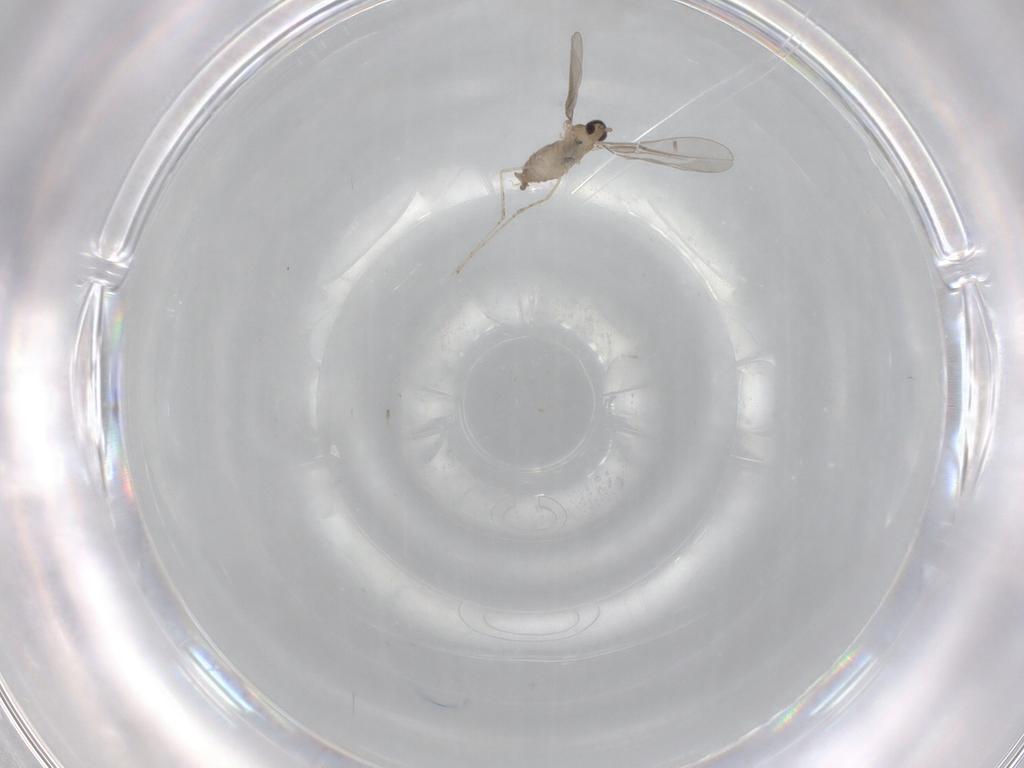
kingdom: Animalia
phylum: Arthropoda
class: Insecta
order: Diptera
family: Cecidomyiidae
